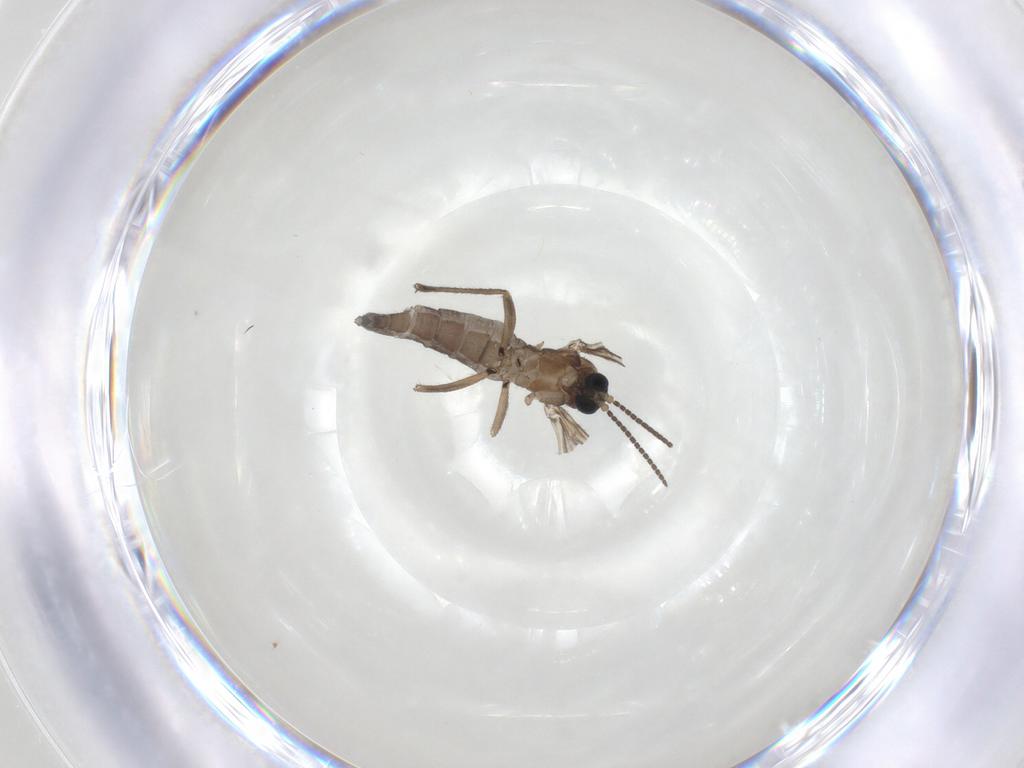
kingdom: Animalia
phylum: Arthropoda
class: Insecta
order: Diptera
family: Sciaridae
